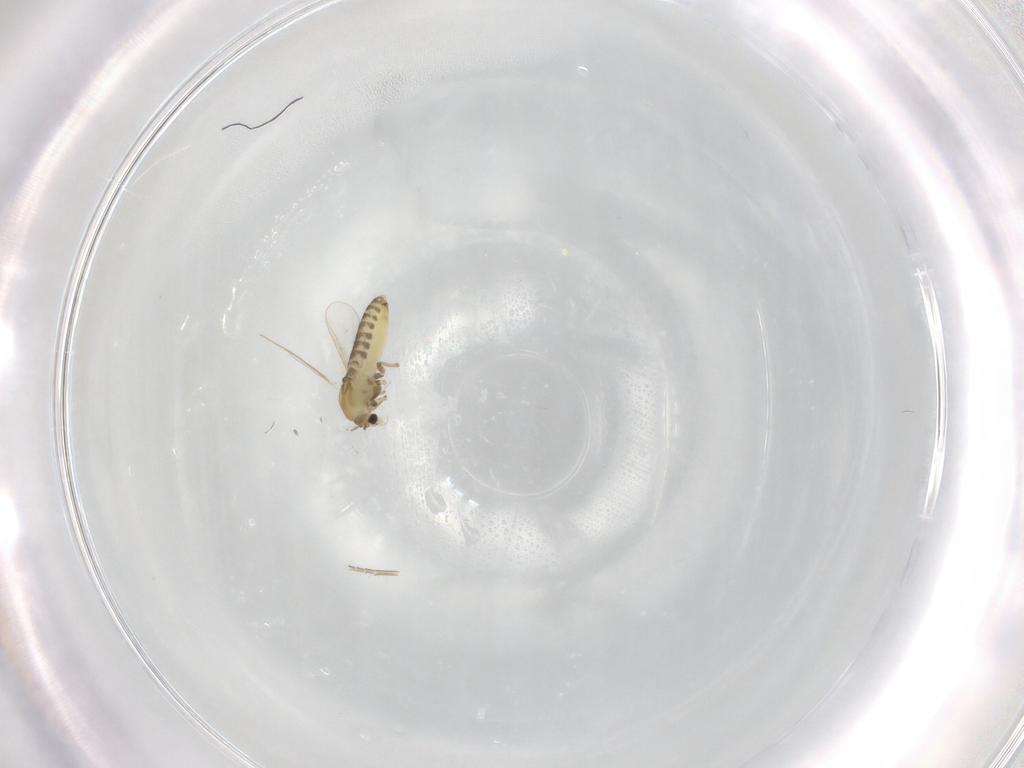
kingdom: Animalia
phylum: Arthropoda
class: Insecta
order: Diptera
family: Chironomidae
